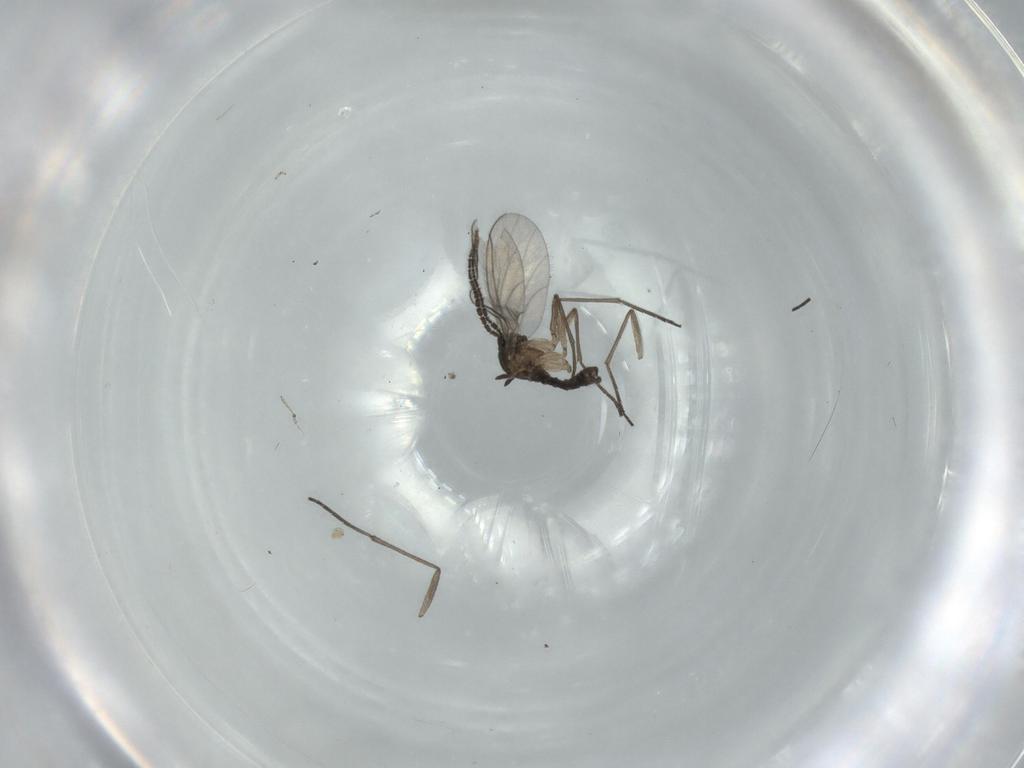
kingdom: Animalia
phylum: Arthropoda
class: Insecta
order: Diptera
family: Sciaridae
